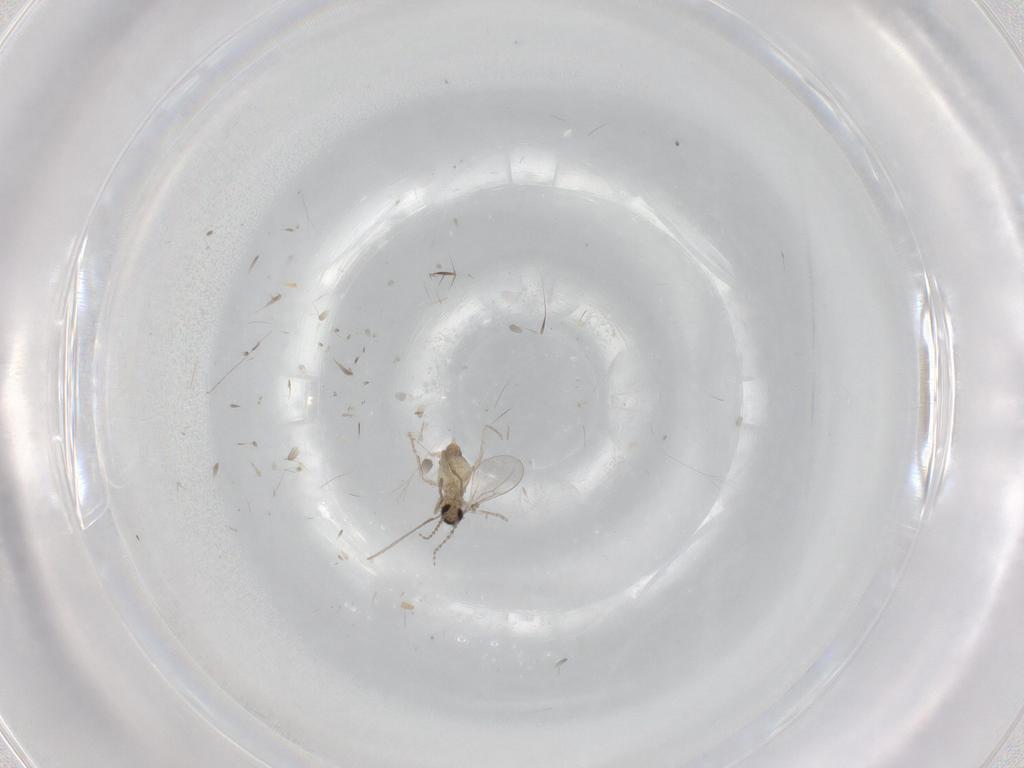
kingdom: Animalia
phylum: Arthropoda
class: Insecta
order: Diptera
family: Cecidomyiidae
